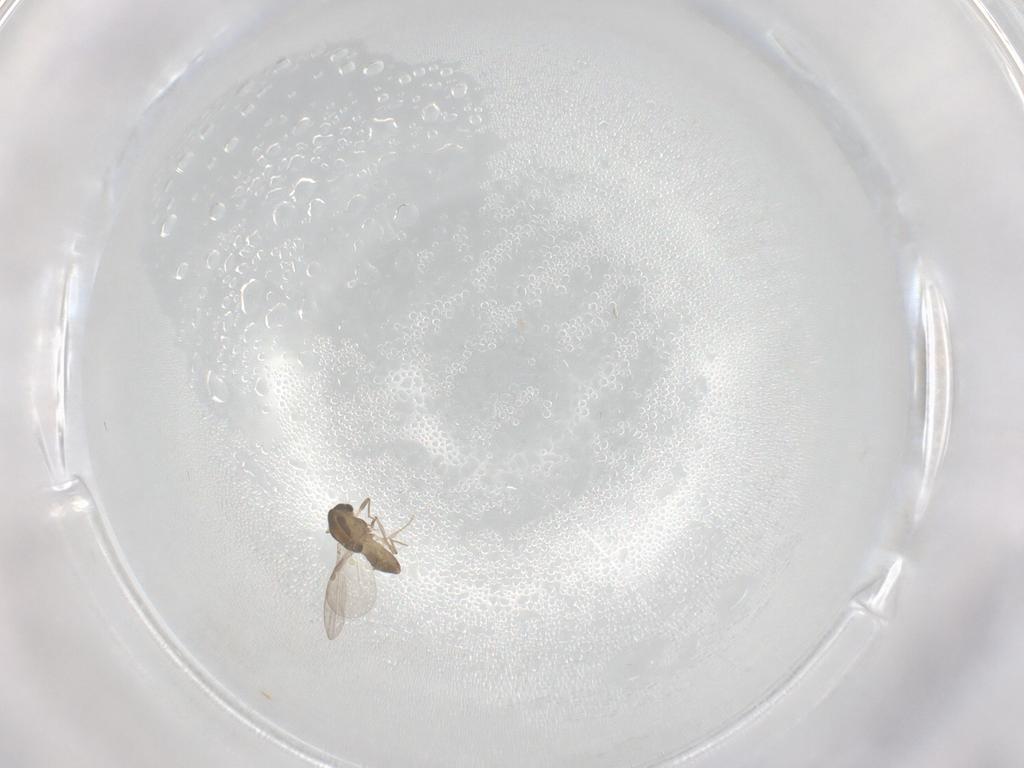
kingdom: Animalia
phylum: Arthropoda
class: Insecta
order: Diptera
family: Chironomidae
